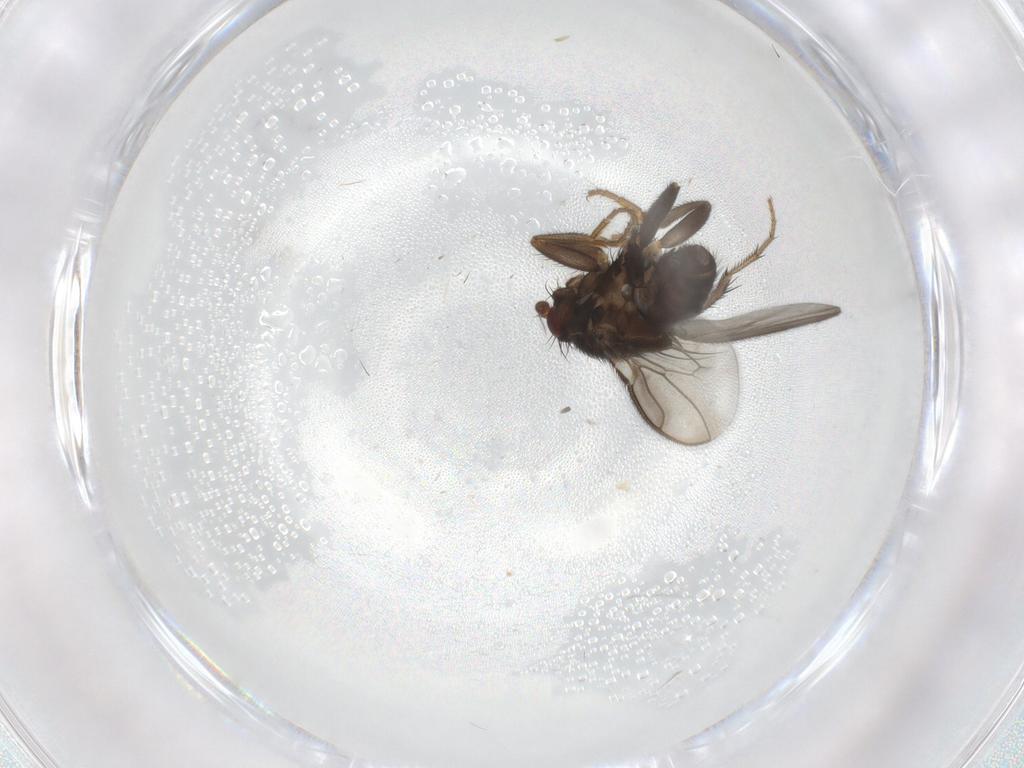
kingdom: Animalia
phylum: Arthropoda
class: Insecta
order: Diptera
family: Sphaeroceridae
